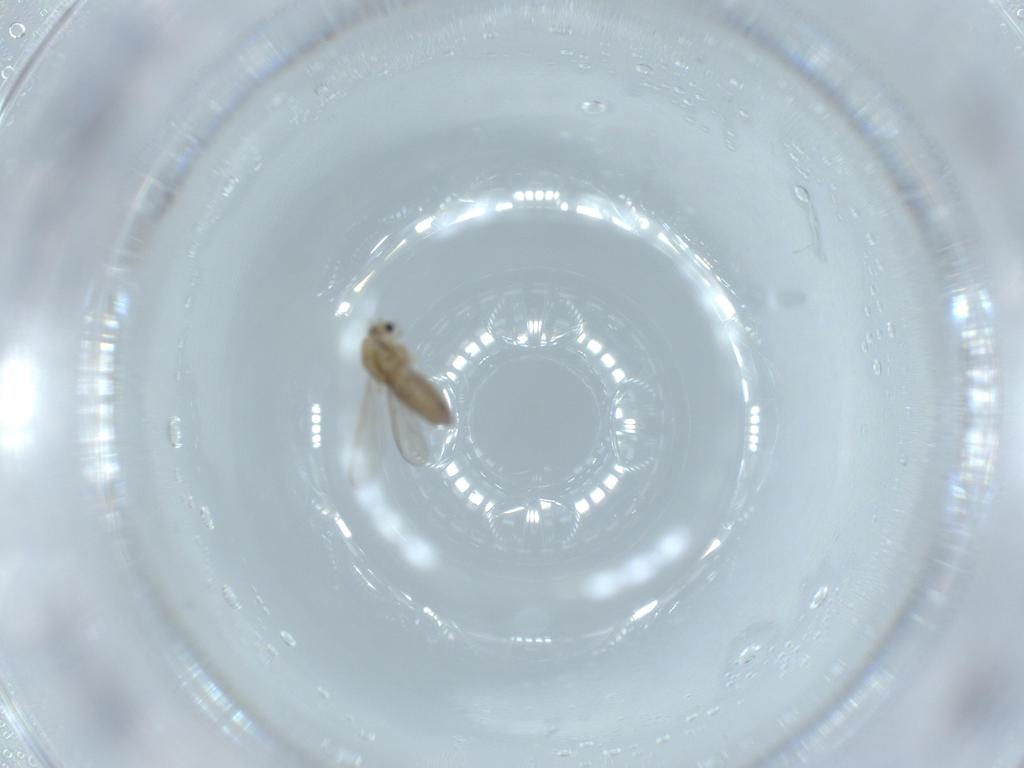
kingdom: Animalia
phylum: Arthropoda
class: Insecta
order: Diptera
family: Chironomidae
